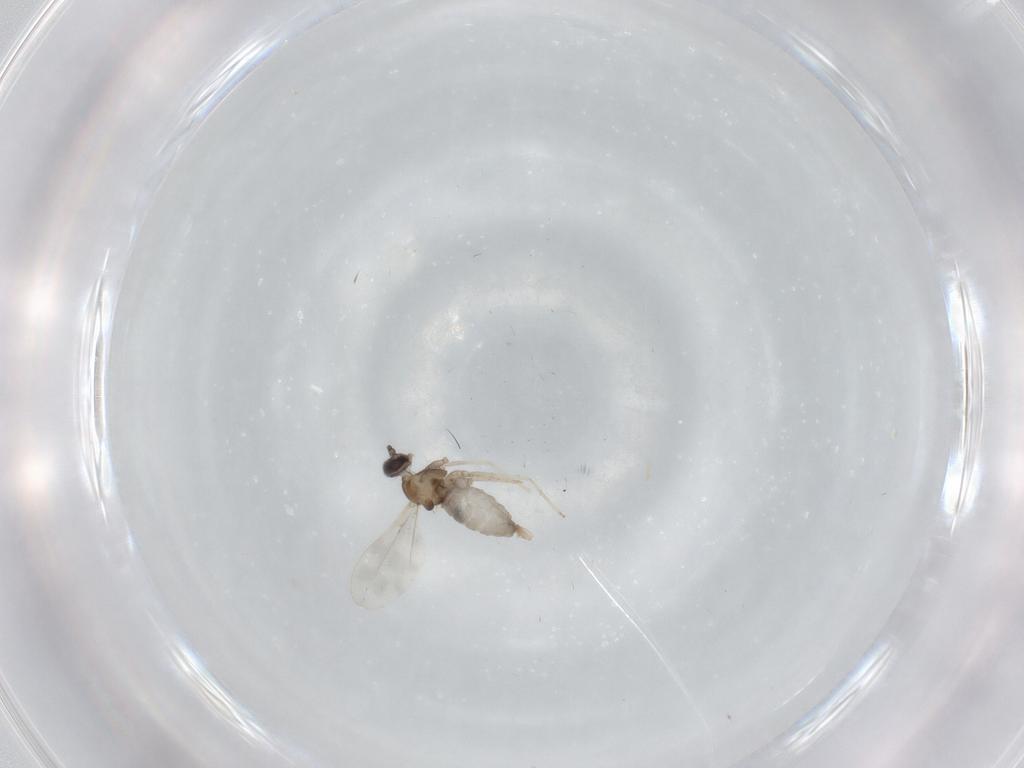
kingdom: Animalia
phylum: Arthropoda
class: Insecta
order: Diptera
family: Cecidomyiidae
